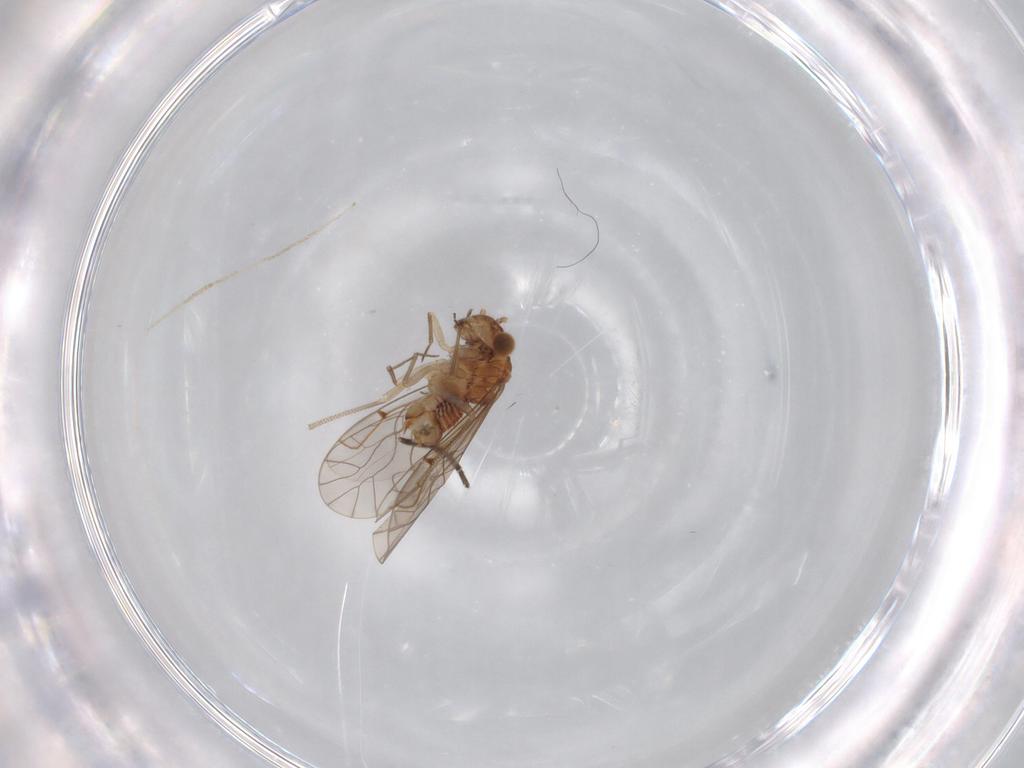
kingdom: Animalia
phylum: Arthropoda
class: Insecta
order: Psocodea
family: Lachesillidae
